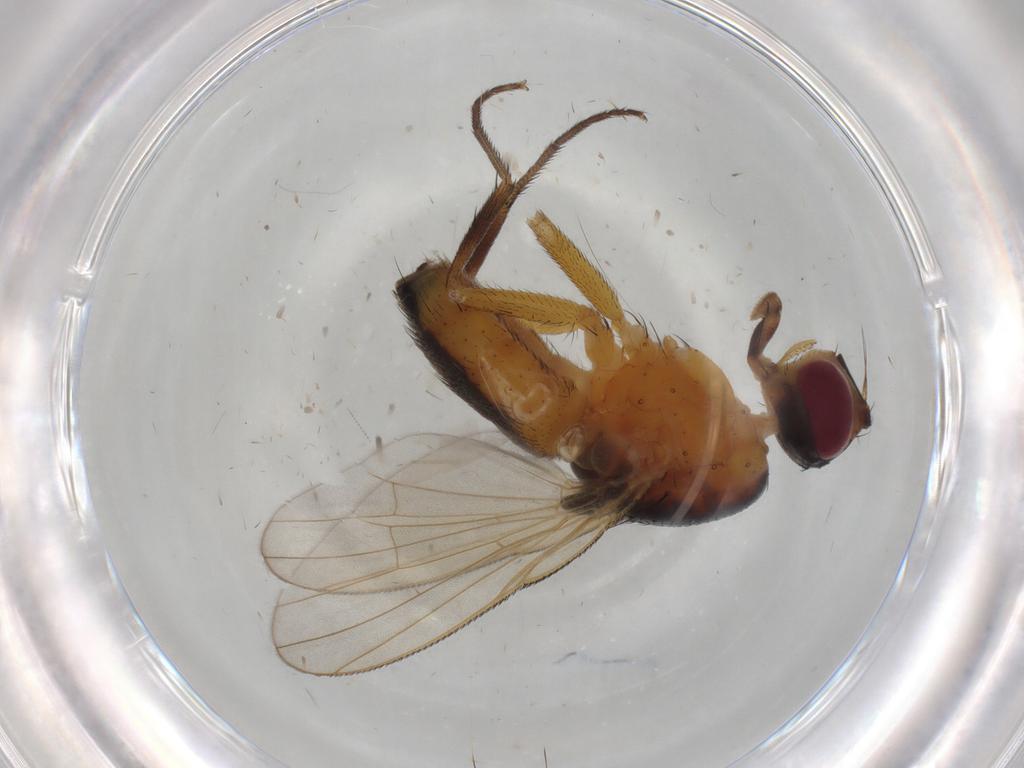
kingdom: Animalia
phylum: Arthropoda
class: Insecta
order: Diptera
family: Muscidae
